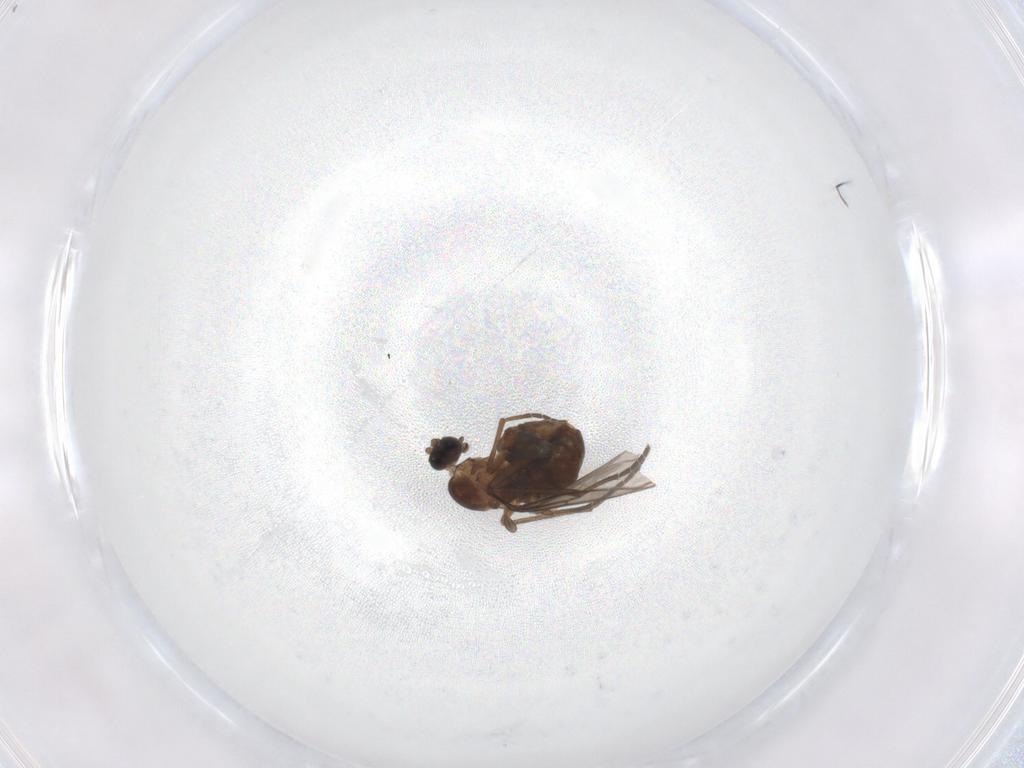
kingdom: Animalia
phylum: Arthropoda
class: Insecta
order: Diptera
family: Sciaridae
